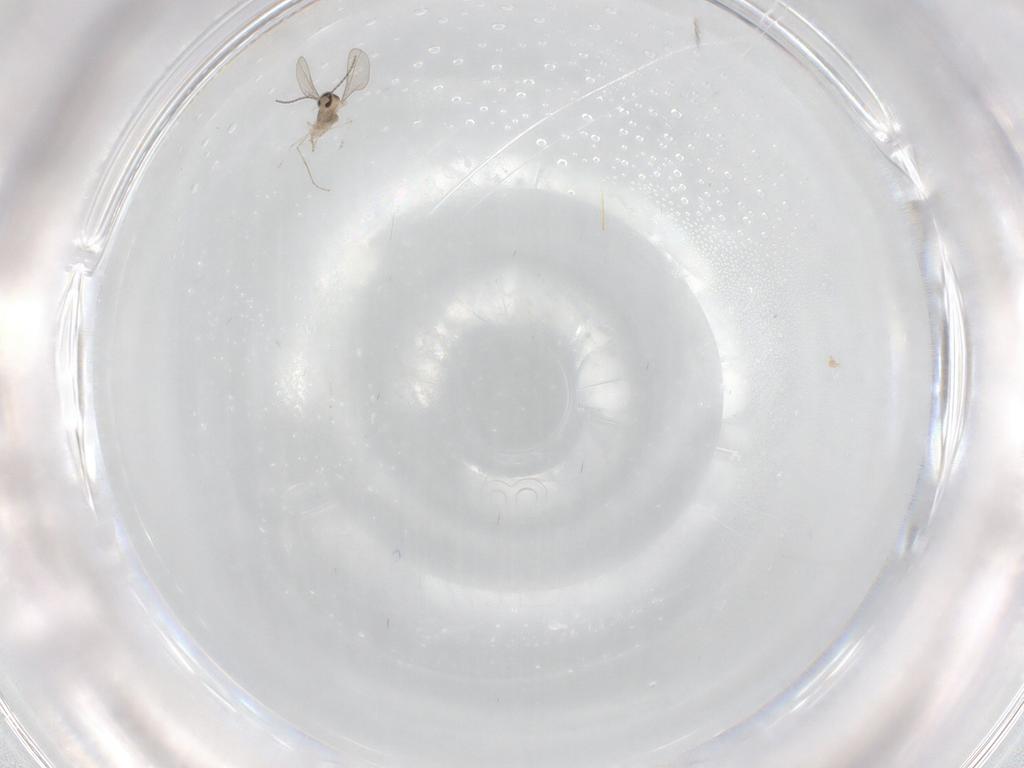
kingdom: Animalia
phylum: Arthropoda
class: Insecta
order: Diptera
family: Cecidomyiidae
